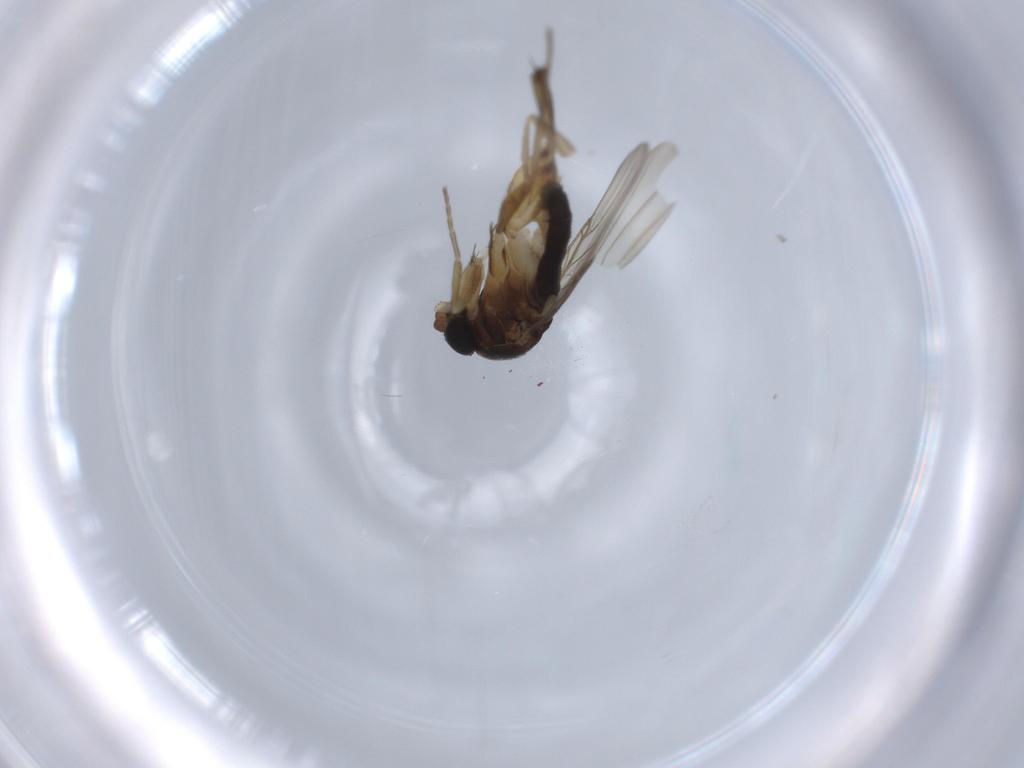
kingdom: Animalia
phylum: Arthropoda
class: Insecta
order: Diptera
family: Phoridae
